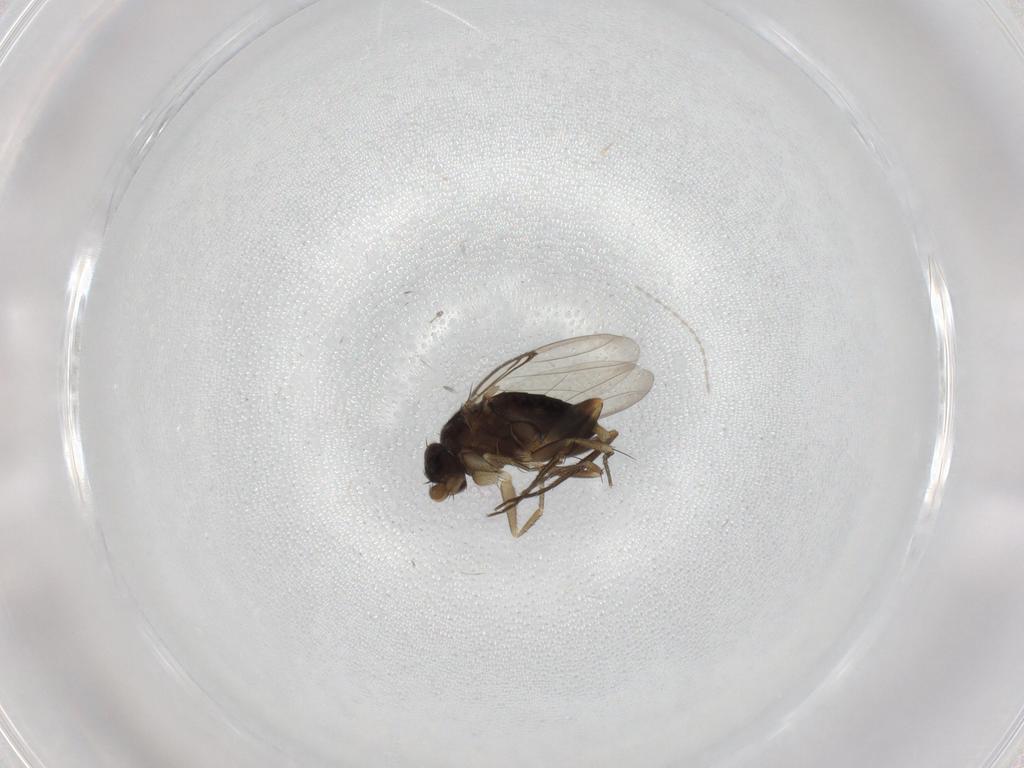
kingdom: Animalia
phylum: Arthropoda
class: Insecta
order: Diptera
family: Phoridae
